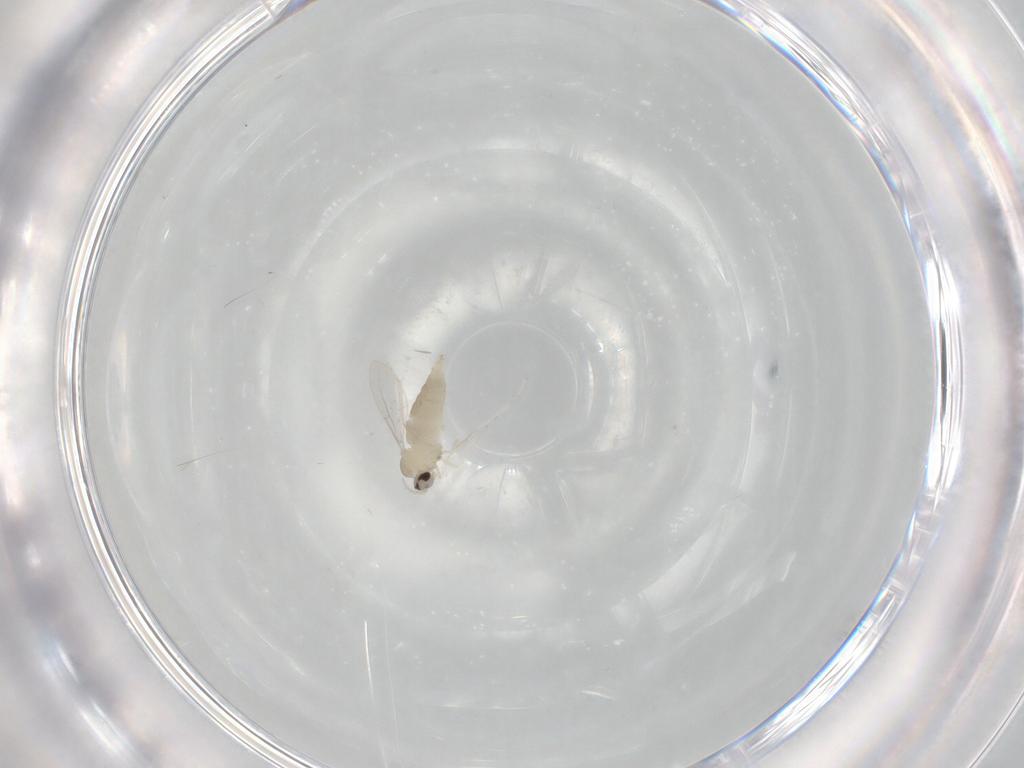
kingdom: Animalia
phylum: Arthropoda
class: Insecta
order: Diptera
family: Cecidomyiidae
